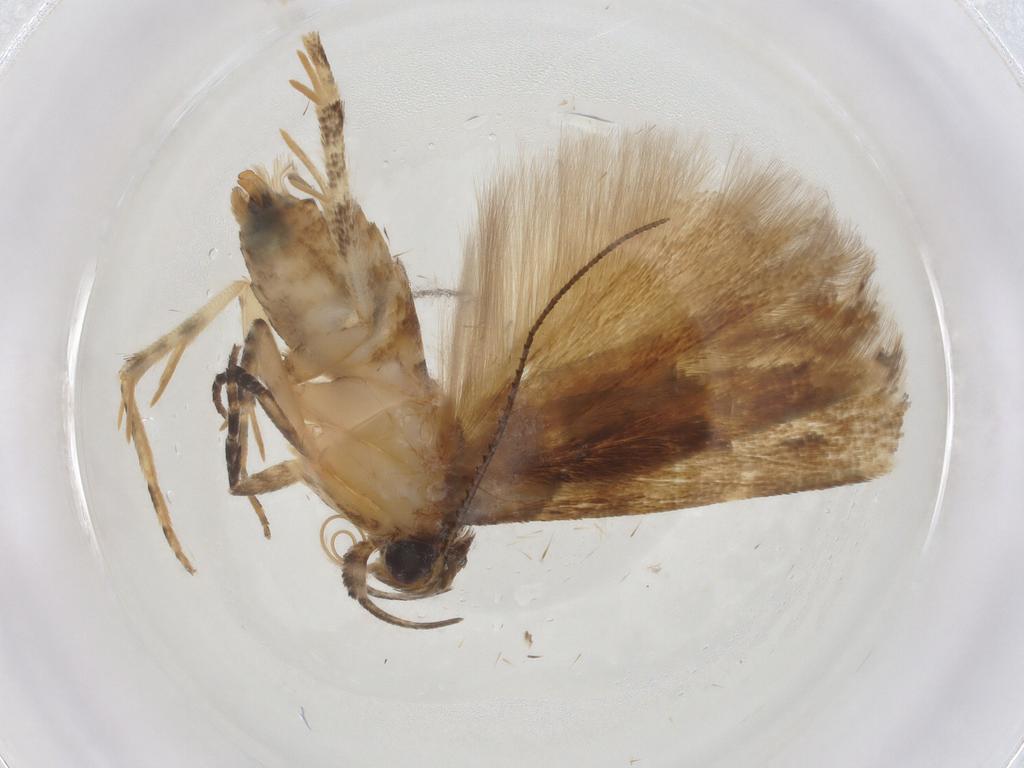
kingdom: Animalia
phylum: Arthropoda
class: Insecta
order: Lepidoptera
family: Gelechiidae
